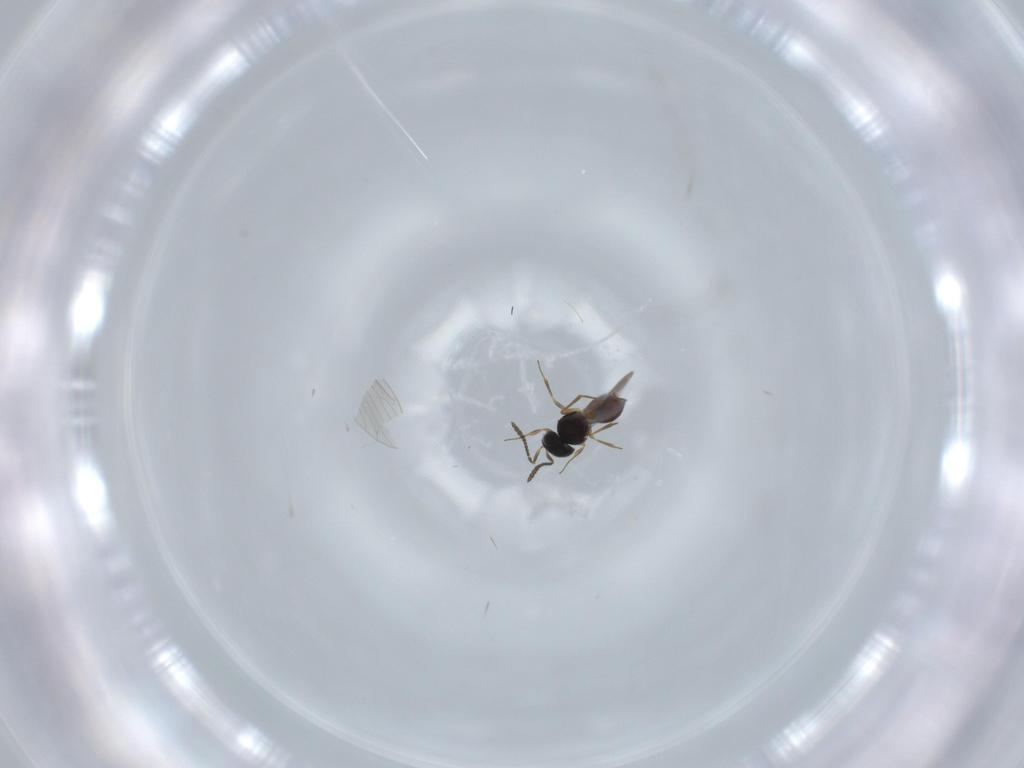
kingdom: Animalia
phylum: Arthropoda
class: Insecta
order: Hymenoptera
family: Scelionidae
